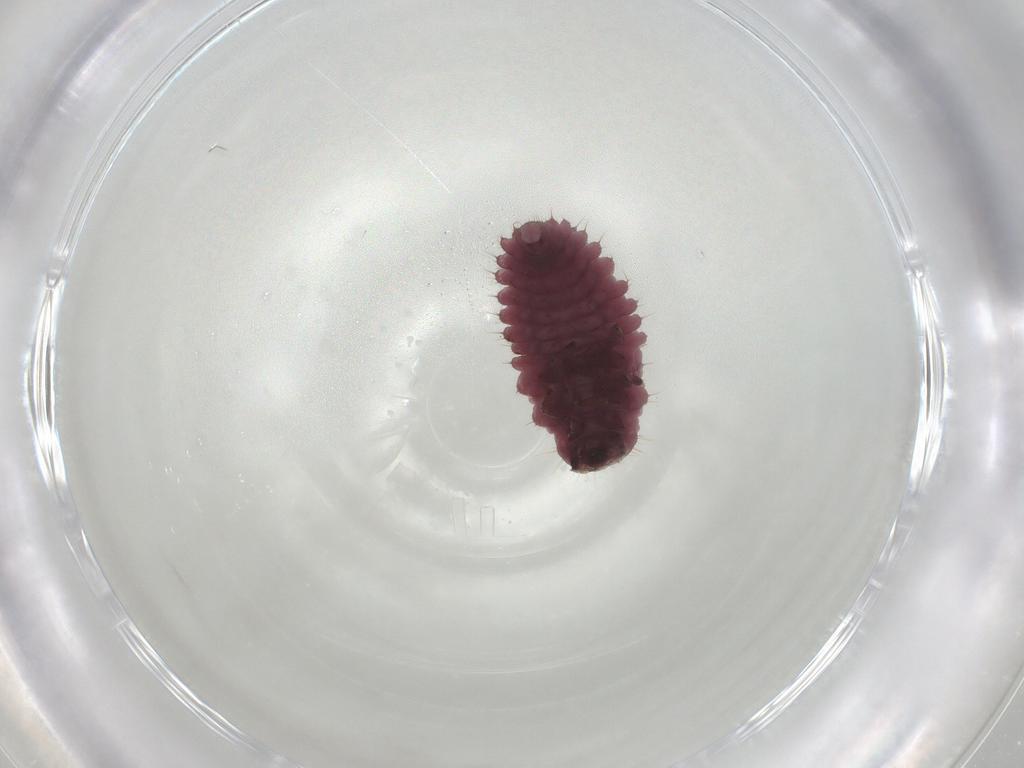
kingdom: Animalia
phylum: Arthropoda
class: Insecta
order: Coleoptera
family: Coccinellidae
